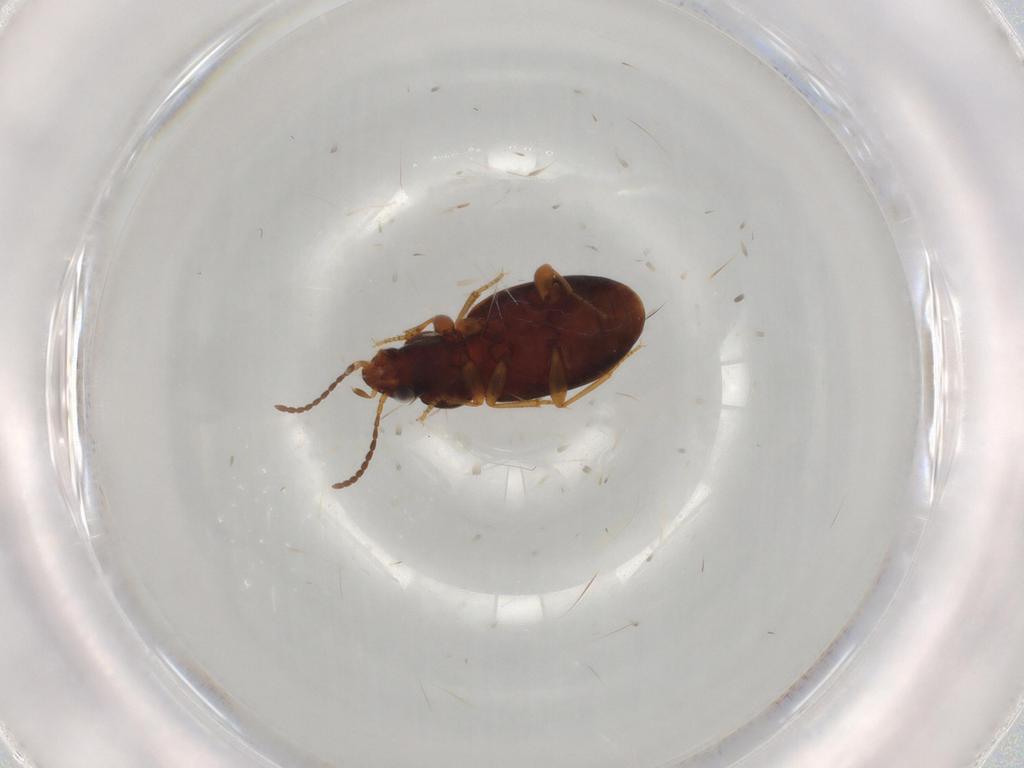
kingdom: Animalia
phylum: Arthropoda
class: Insecta
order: Coleoptera
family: Carabidae
